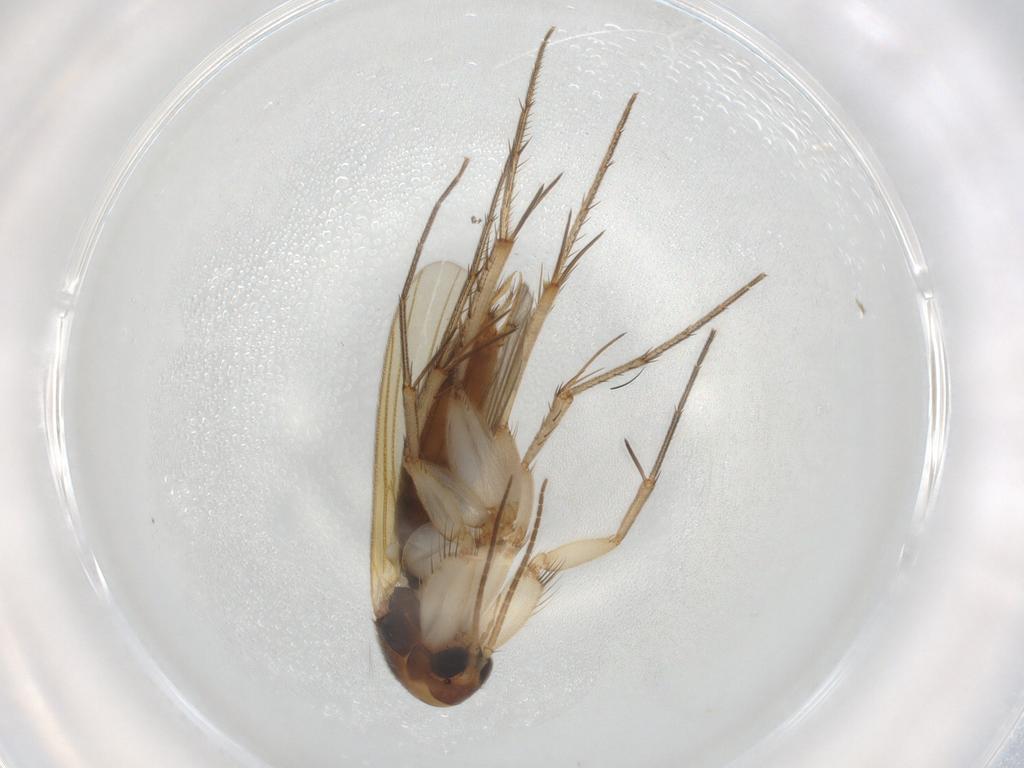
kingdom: Animalia
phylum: Arthropoda
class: Insecta
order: Diptera
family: Mycetophilidae
